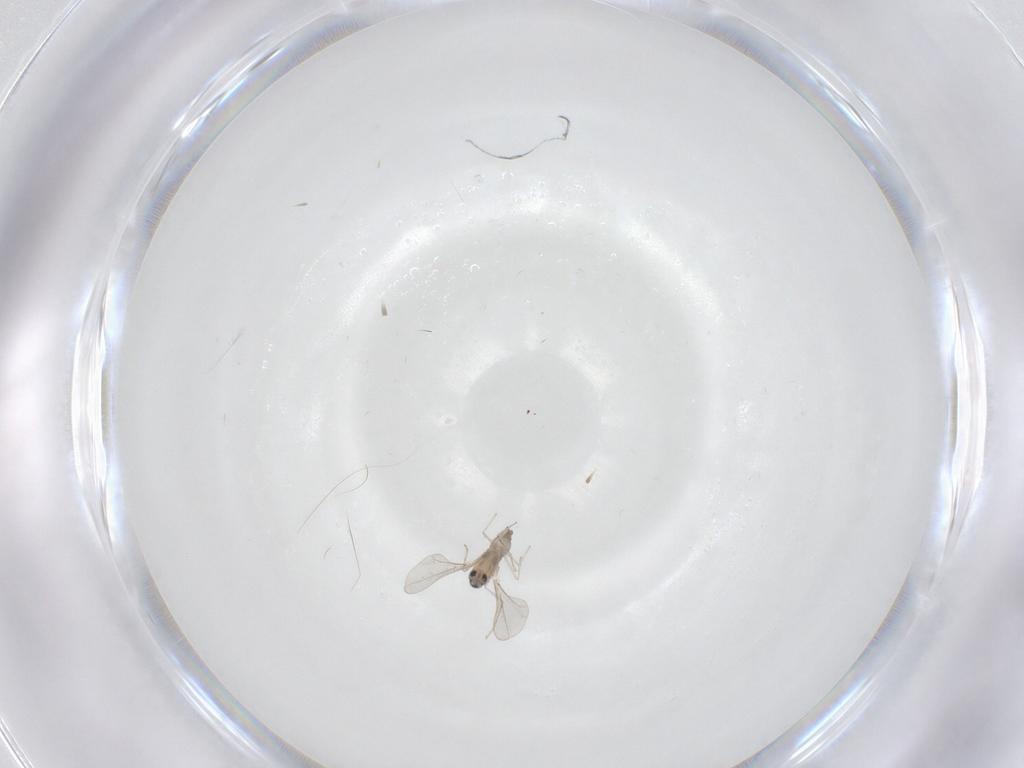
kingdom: Animalia
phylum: Arthropoda
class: Insecta
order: Diptera
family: Cecidomyiidae
